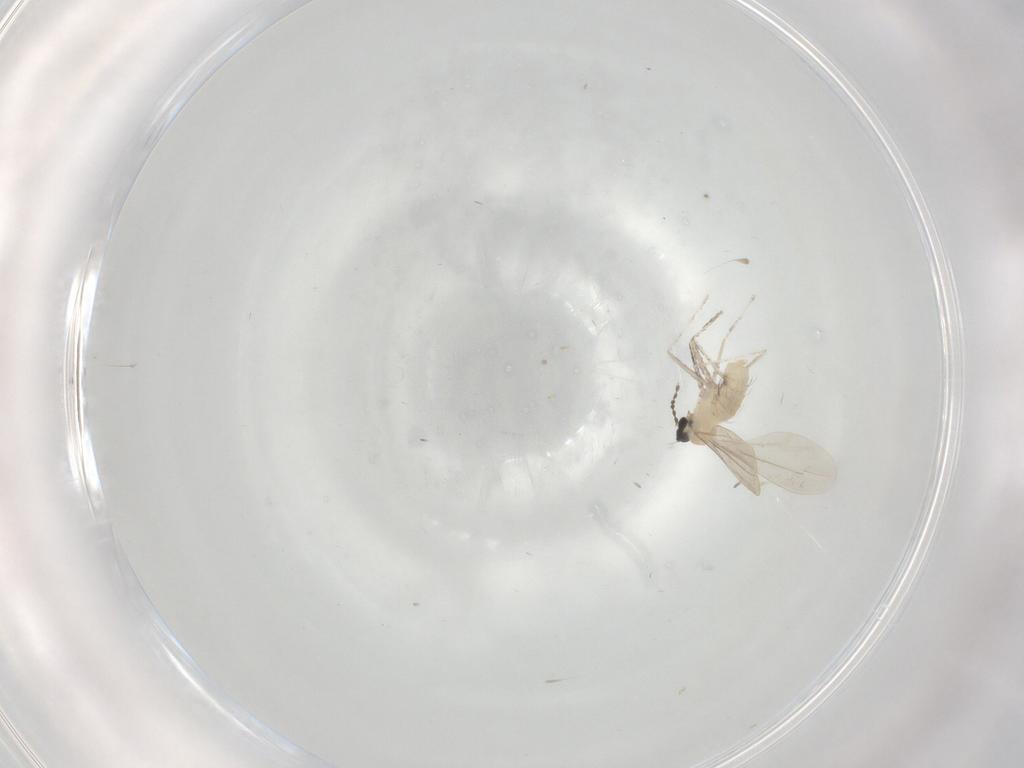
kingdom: Animalia
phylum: Arthropoda
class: Insecta
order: Diptera
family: Cecidomyiidae
